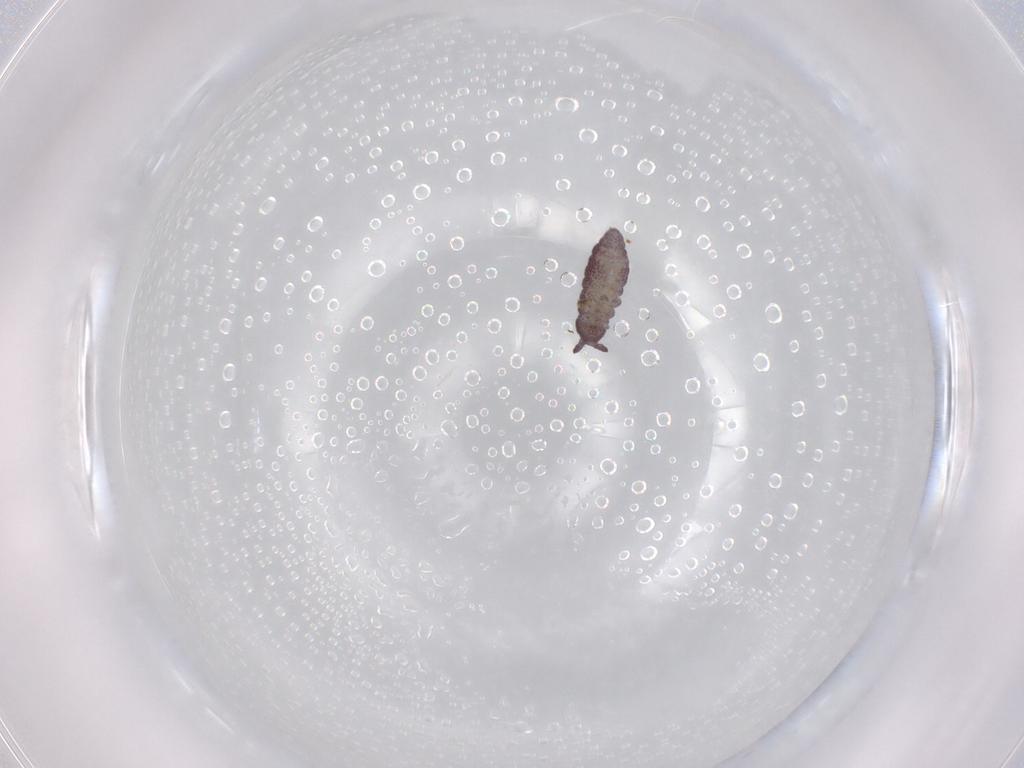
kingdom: Animalia
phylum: Arthropoda
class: Collembola
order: Poduromorpha
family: Hypogastruridae
